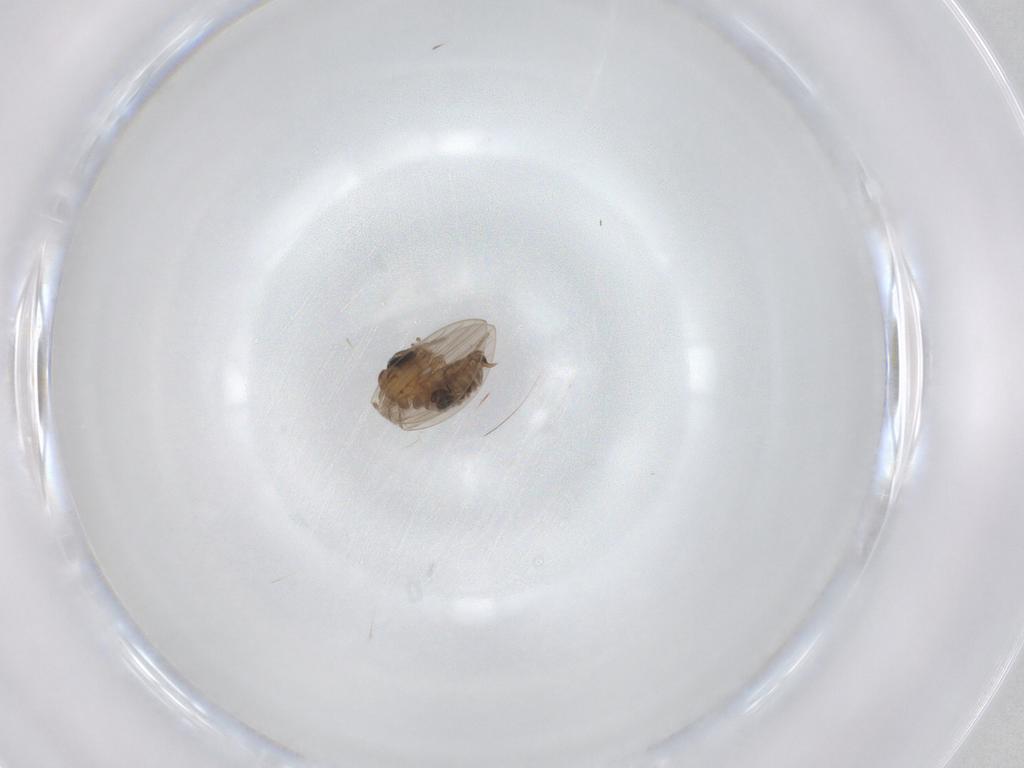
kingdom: Animalia
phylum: Arthropoda
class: Insecta
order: Diptera
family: Psychodidae
